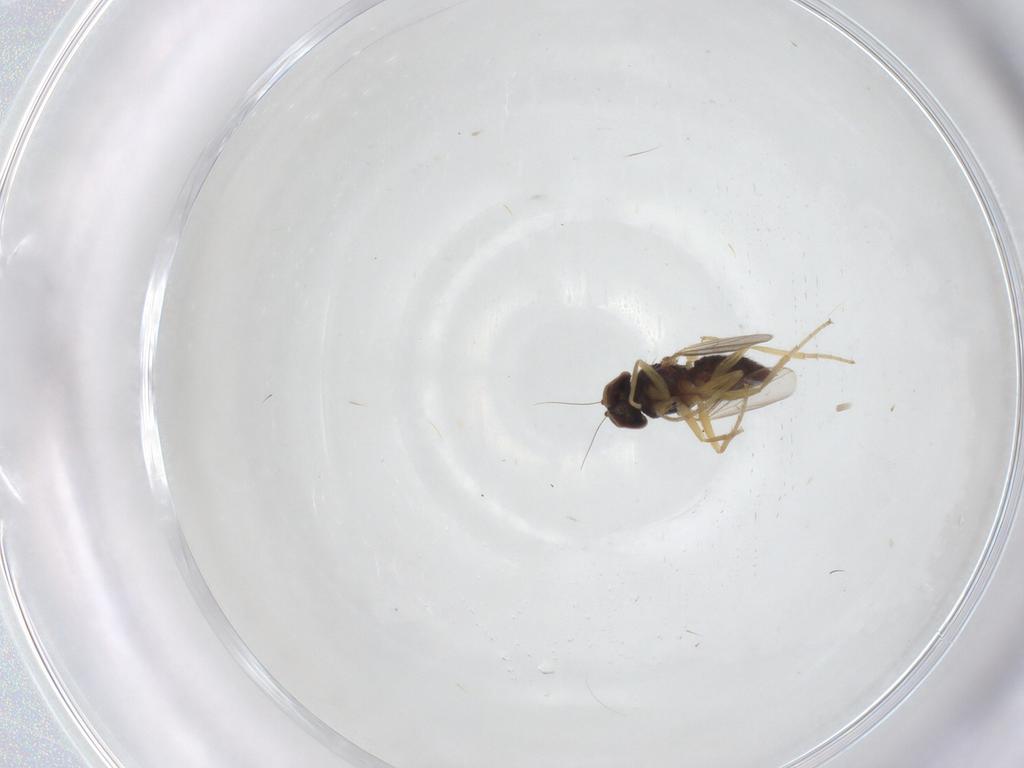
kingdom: Animalia
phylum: Arthropoda
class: Insecta
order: Diptera
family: Dolichopodidae
